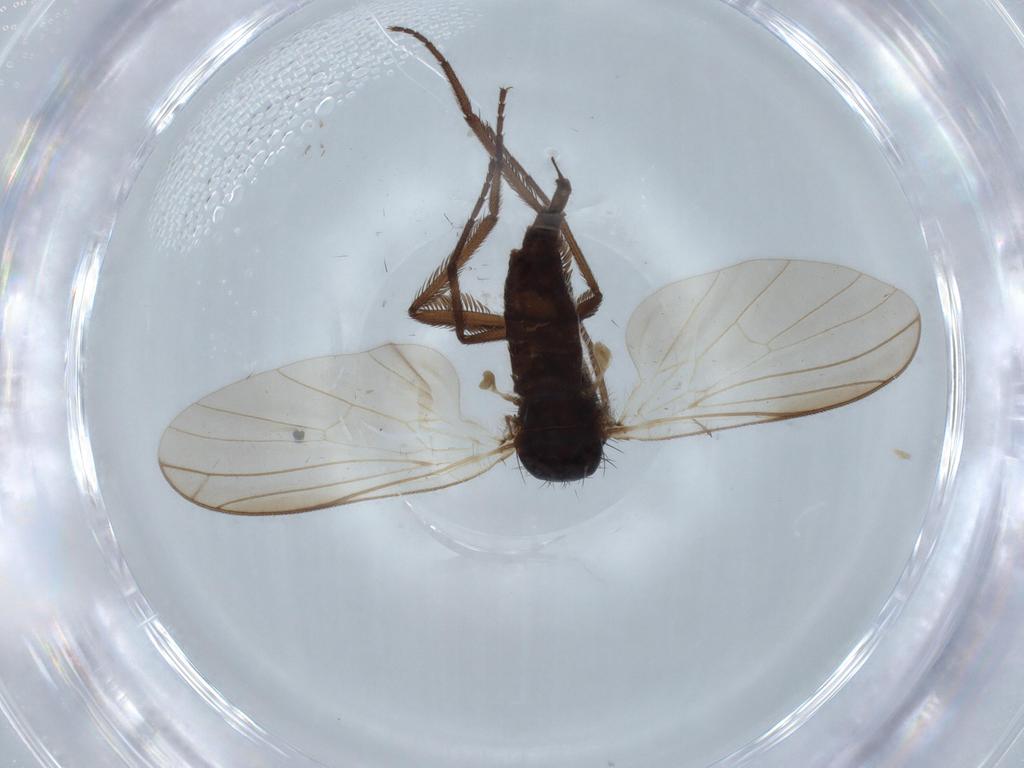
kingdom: Animalia
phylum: Arthropoda
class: Insecta
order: Diptera
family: Empididae
